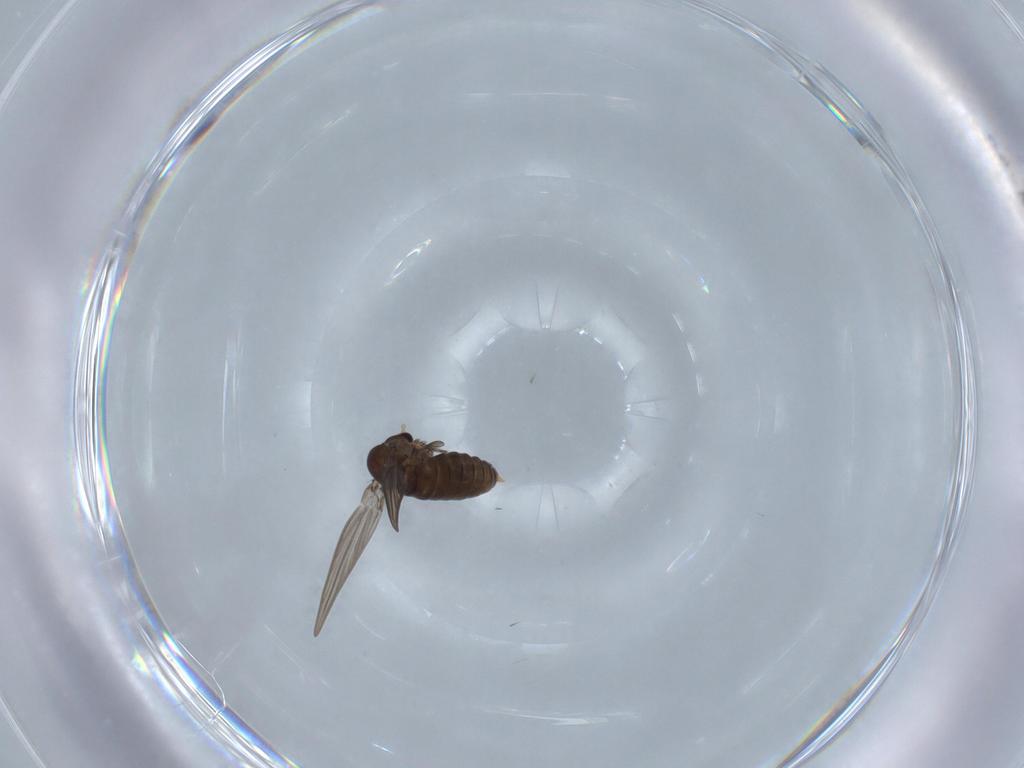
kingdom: Animalia
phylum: Arthropoda
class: Insecta
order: Diptera
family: Psychodidae
